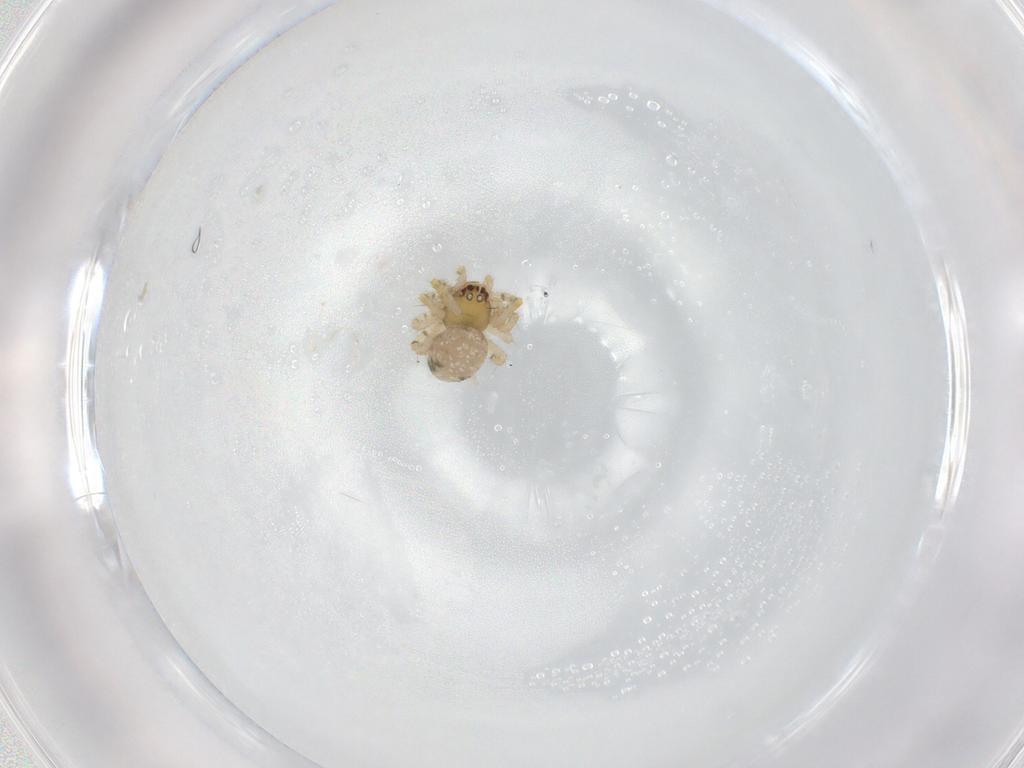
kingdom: Animalia
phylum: Arthropoda
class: Arachnida
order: Araneae
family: Theridiidae
